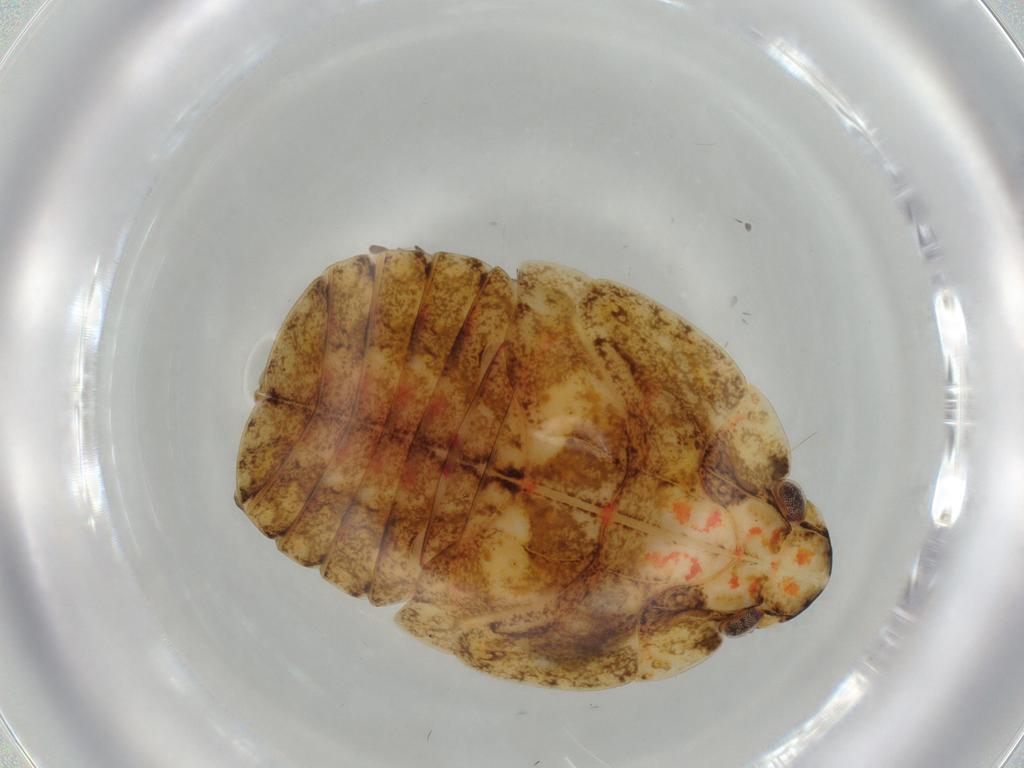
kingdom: Animalia
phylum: Arthropoda
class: Insecta
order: Hemiptera
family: Flatidae
